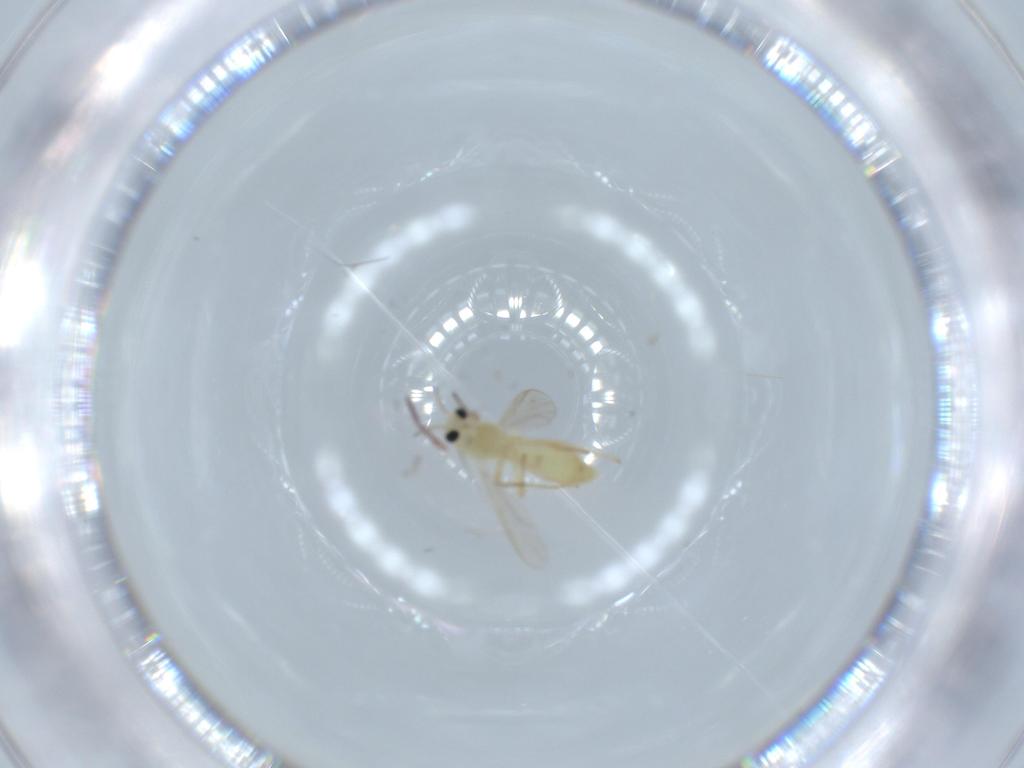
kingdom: Animalia
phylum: Arthropoda
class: Insecta
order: Diptera
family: Chironomidae
